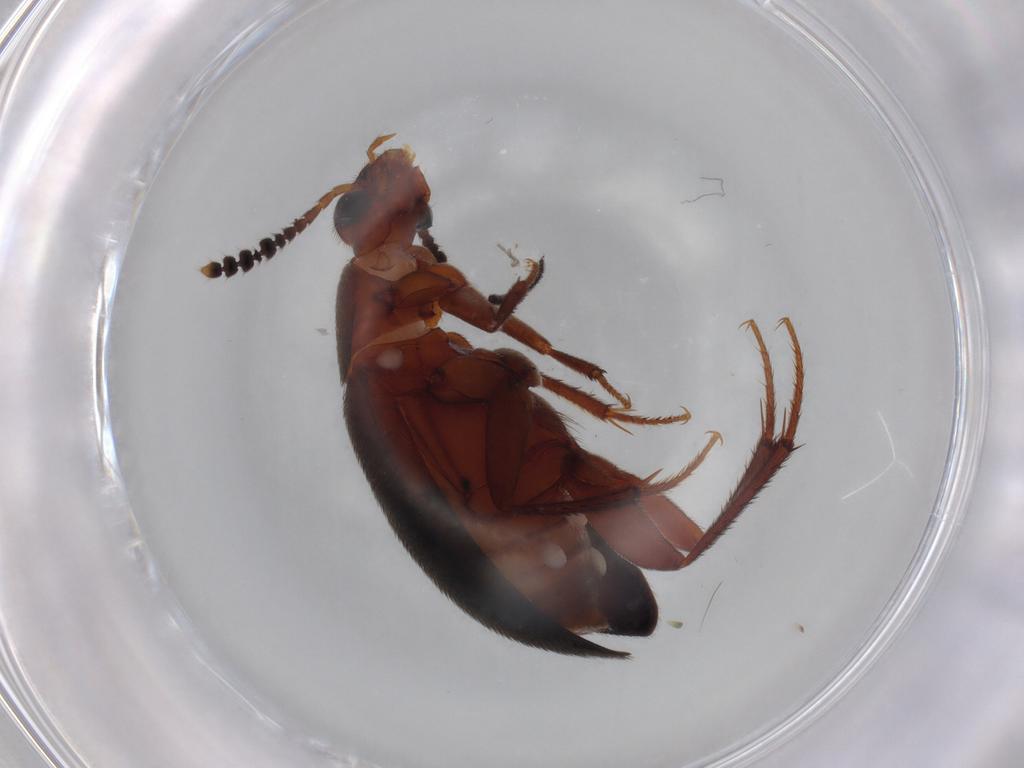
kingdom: Animalia
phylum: Arthropoda
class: Insecta
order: Coleoptera
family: Leiodidae
